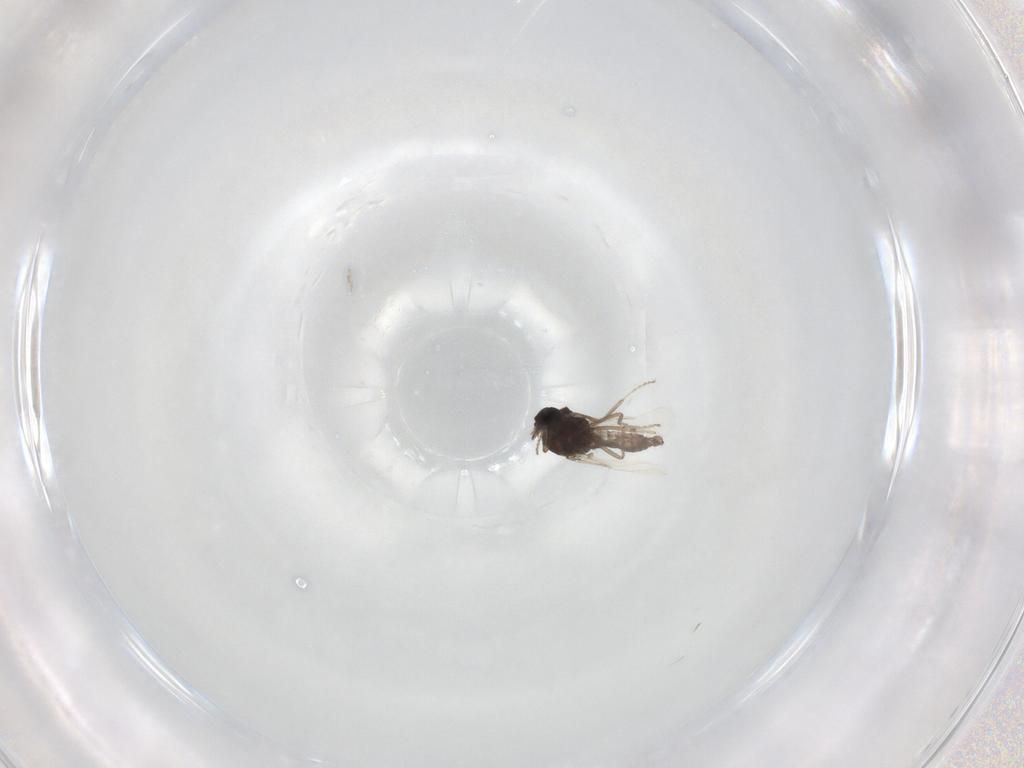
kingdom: Animalia
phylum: Arthropoda
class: Insecta
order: Diptera
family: Ceratopogonidae
